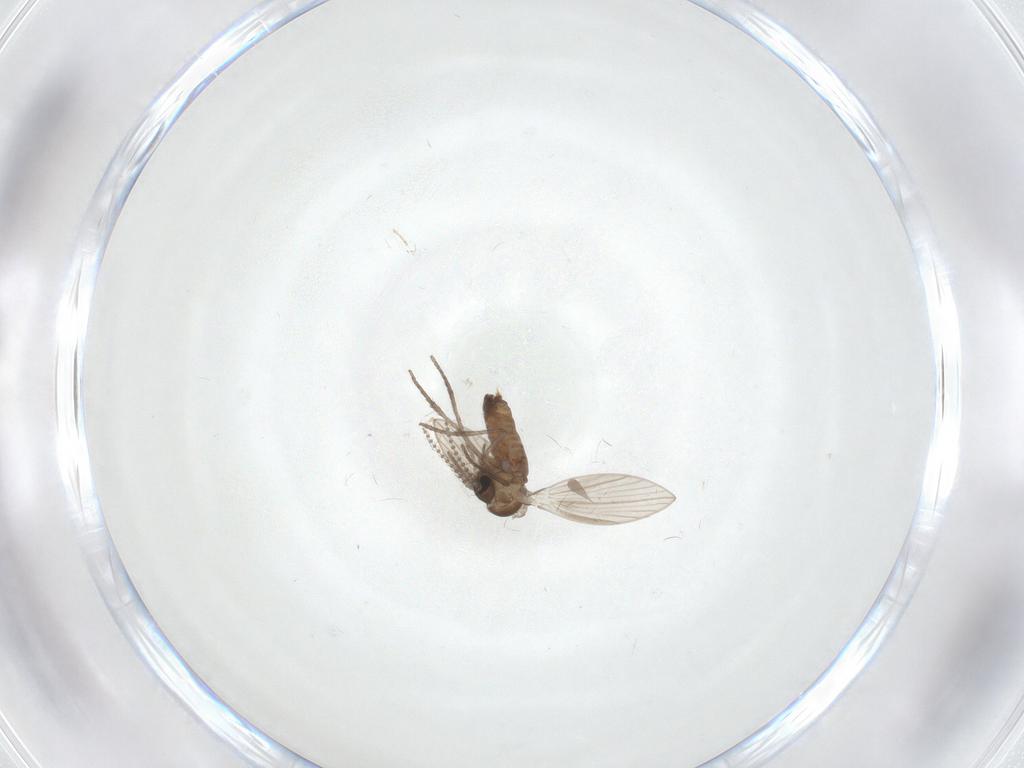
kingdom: Animalia
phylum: Arthropoda
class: Insecta
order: Diptera
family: Psychodidae
